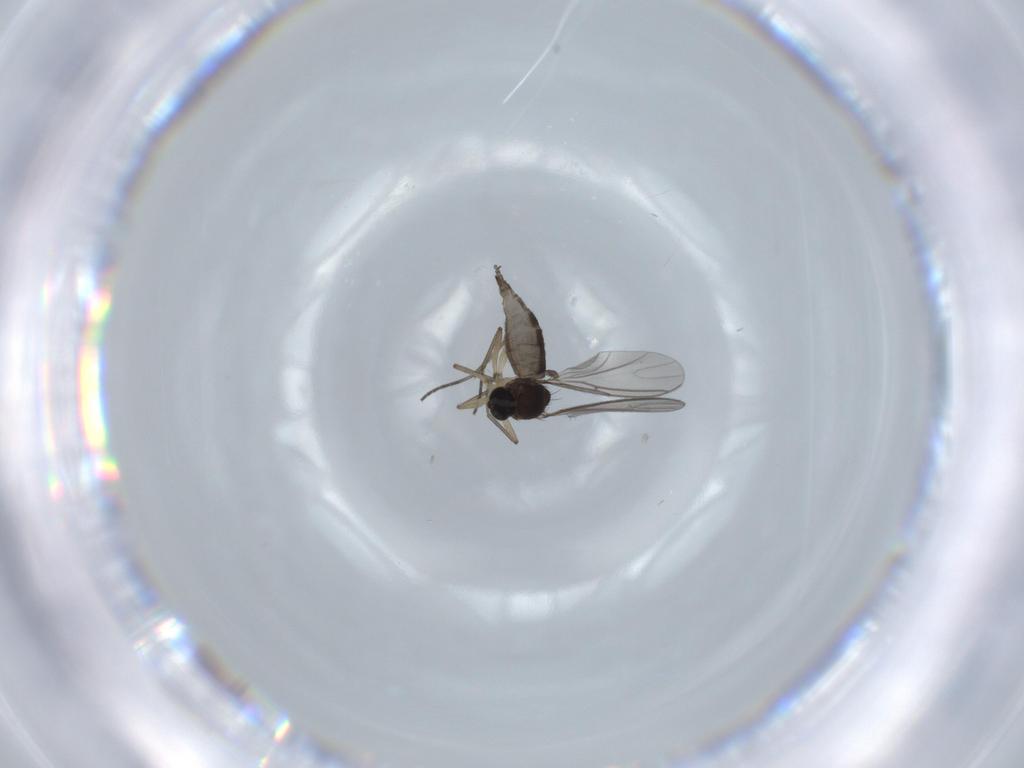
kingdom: Animalia
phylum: Arthropoda
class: Insecta
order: Diptera
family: Sciaridae
